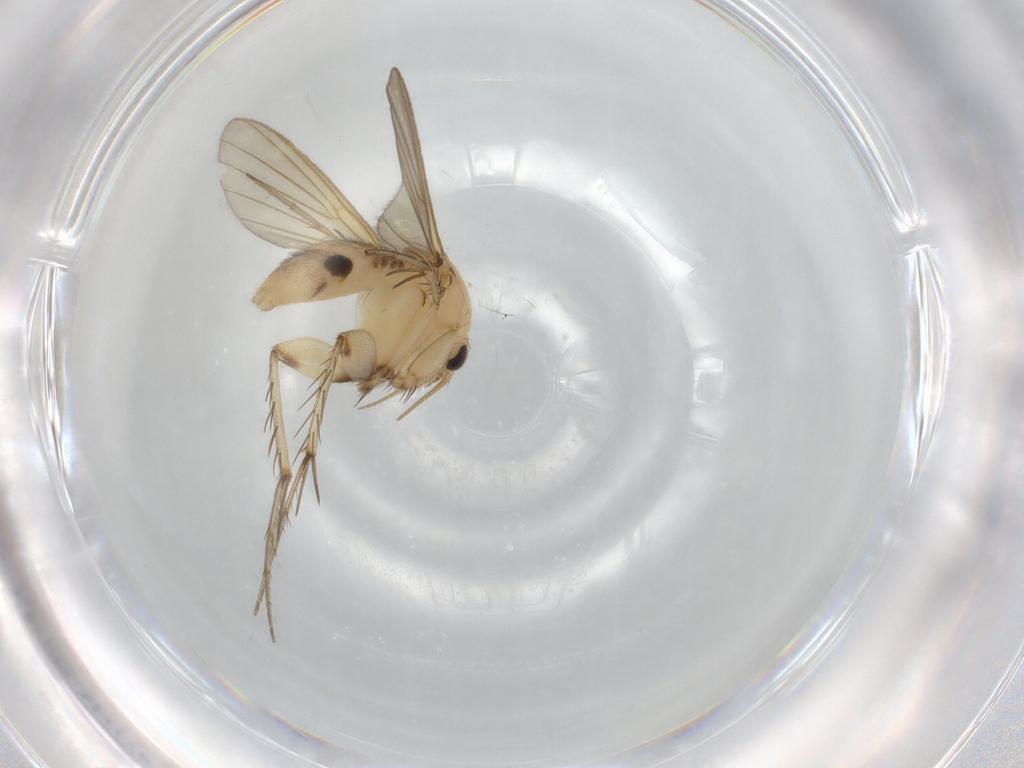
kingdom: Animalia
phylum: Arthropoda
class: Insecta
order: Diptera
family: Mycetophilidae
